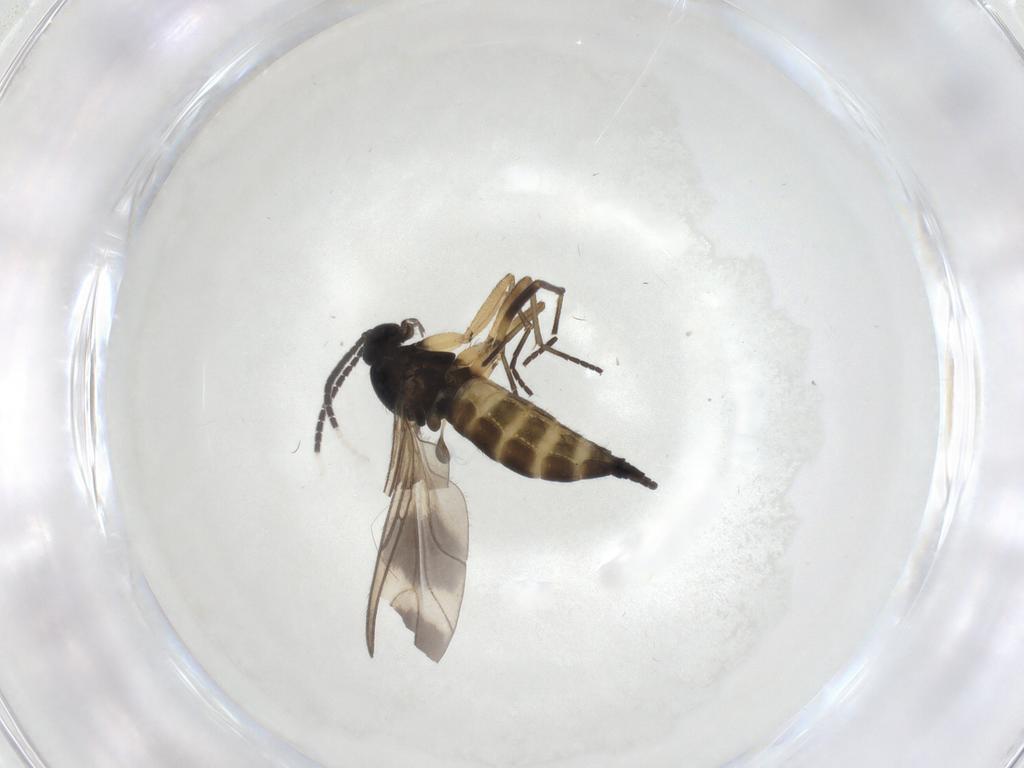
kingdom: Animalia
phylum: Arthropoda
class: Insecta
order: Diptera
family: Sciaridae
